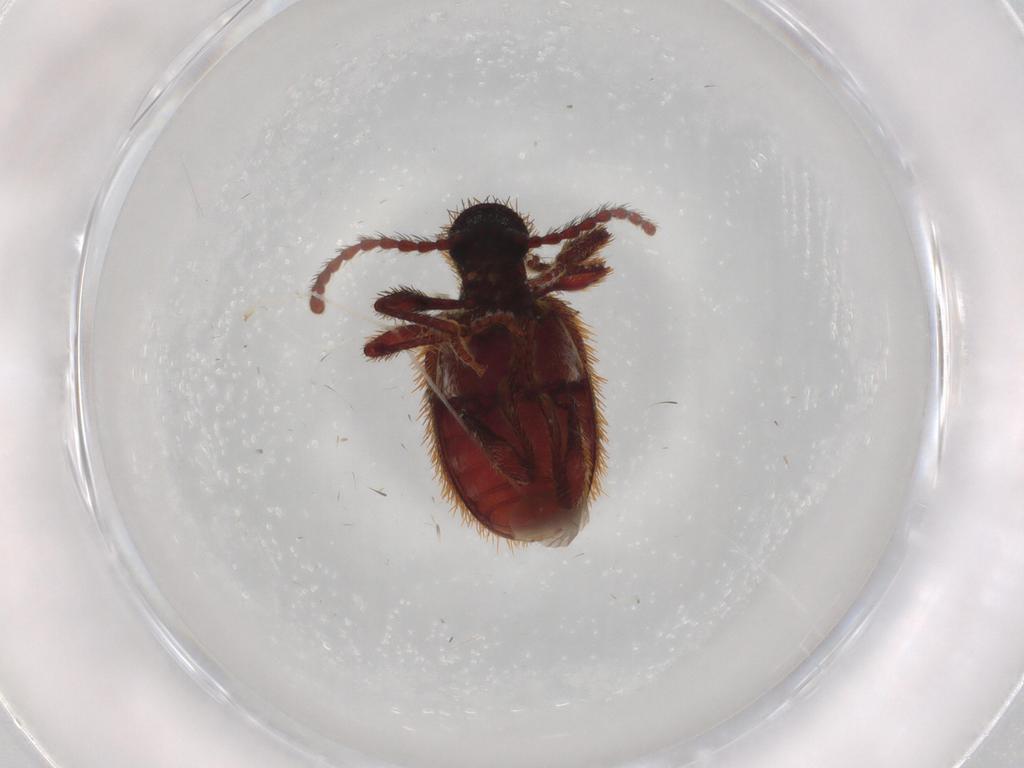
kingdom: Animalia
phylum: Arthropoda
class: Insecta
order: Coleoptera
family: Ptinidae
